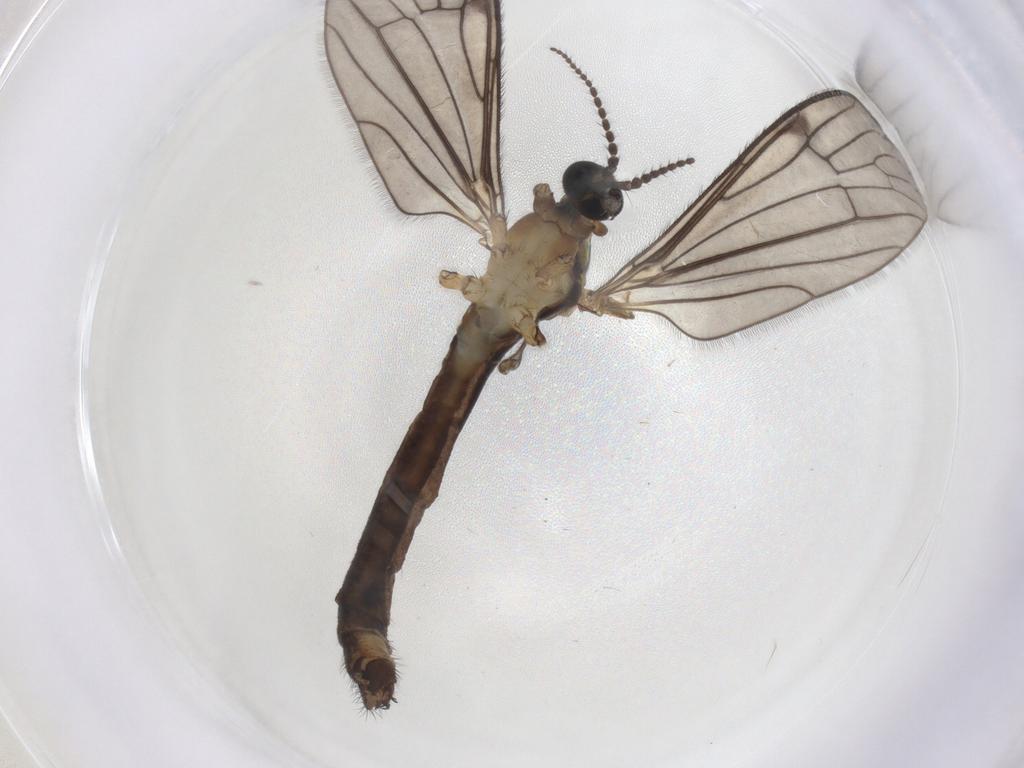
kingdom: Animalia
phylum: Arthropoda
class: Insecta
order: Diptera
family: Limoniidae
